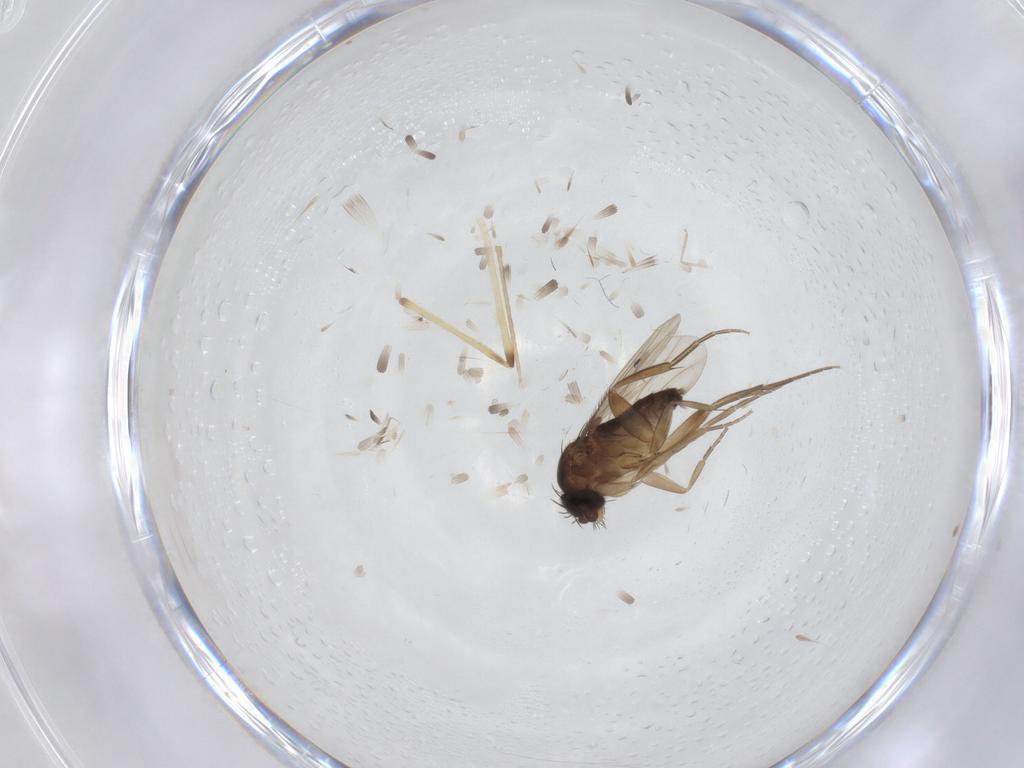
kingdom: Animalia
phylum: Arthropoda
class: Insecta
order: Diptera
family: Phoridae
